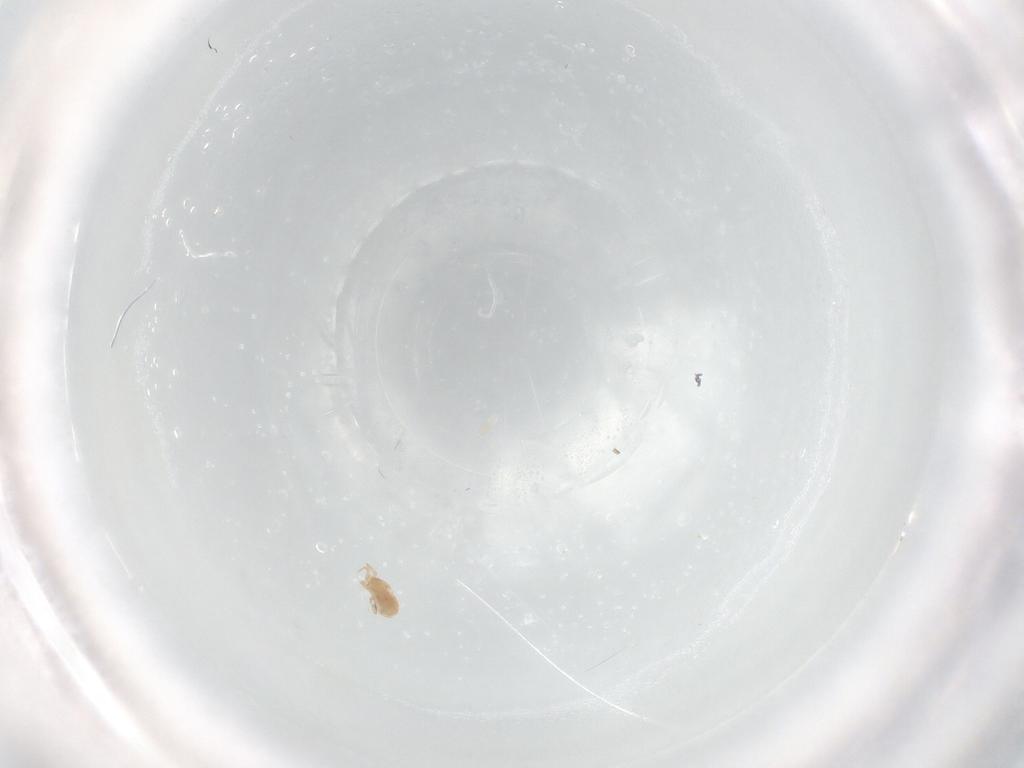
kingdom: Animalia
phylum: Arthropoda
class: Arachnida
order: Mesostigmata
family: Ascidae
